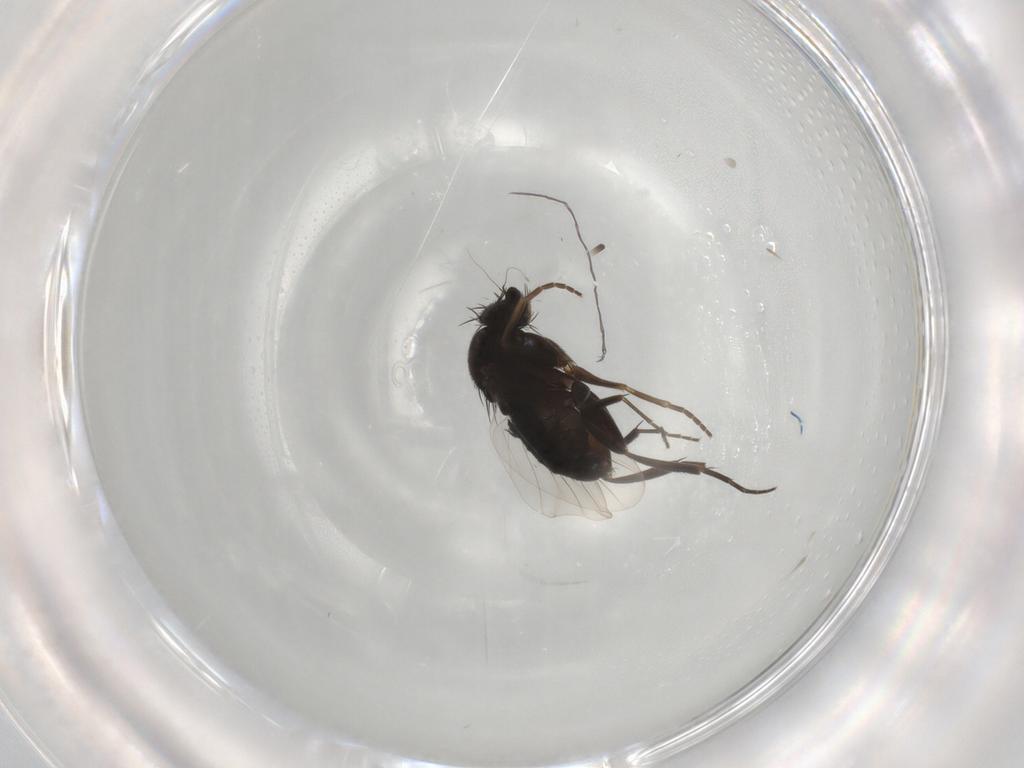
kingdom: Animalia
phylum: Arthropoda
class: Insecta
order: Diptera
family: Phoridae
